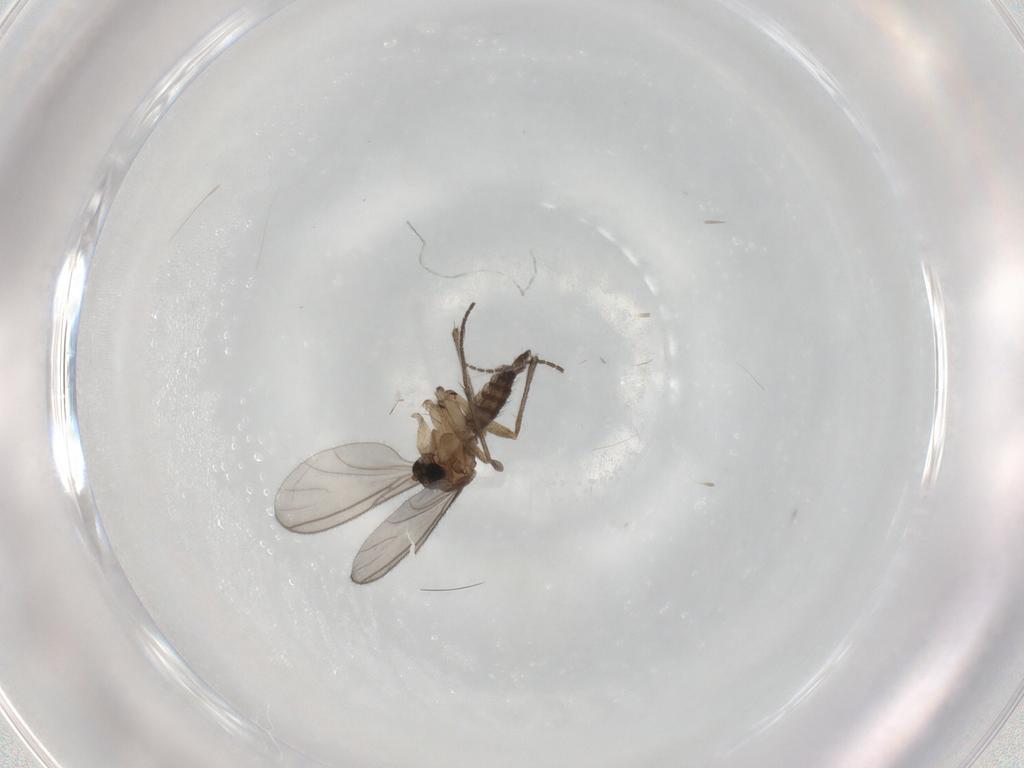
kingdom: Animalia
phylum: Arthropoda
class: Insecta
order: Diptera
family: Sciaridae
